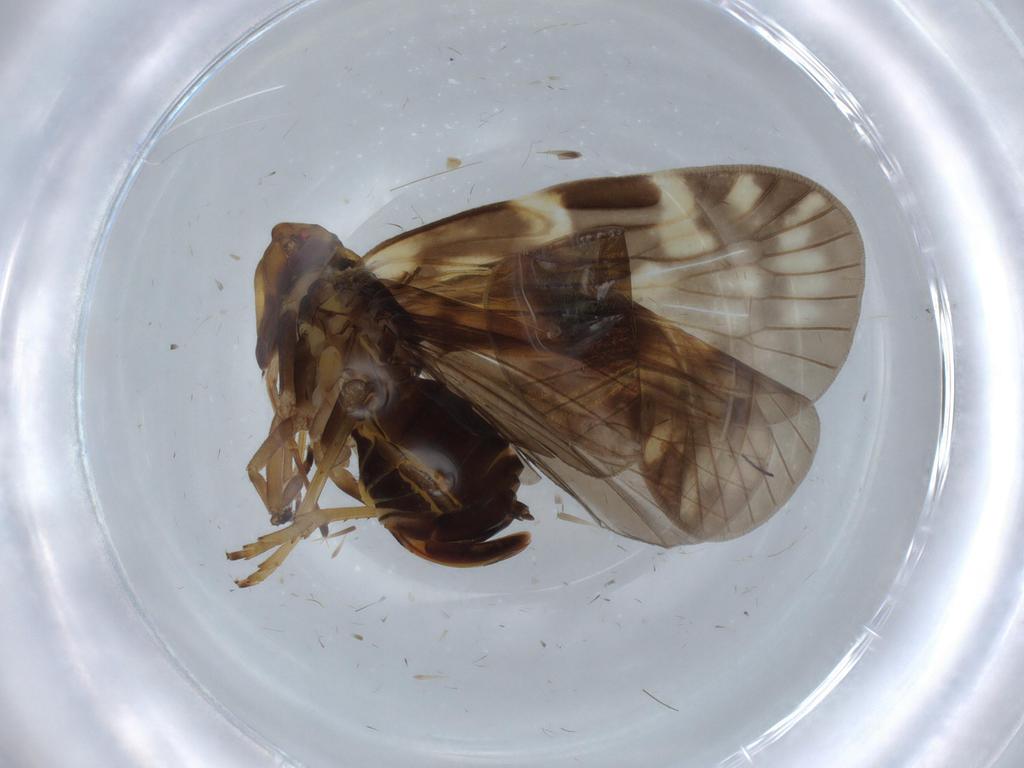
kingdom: Animalia
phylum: Arthropoda
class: Insecta
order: Hemiptera
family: Cixiidae
